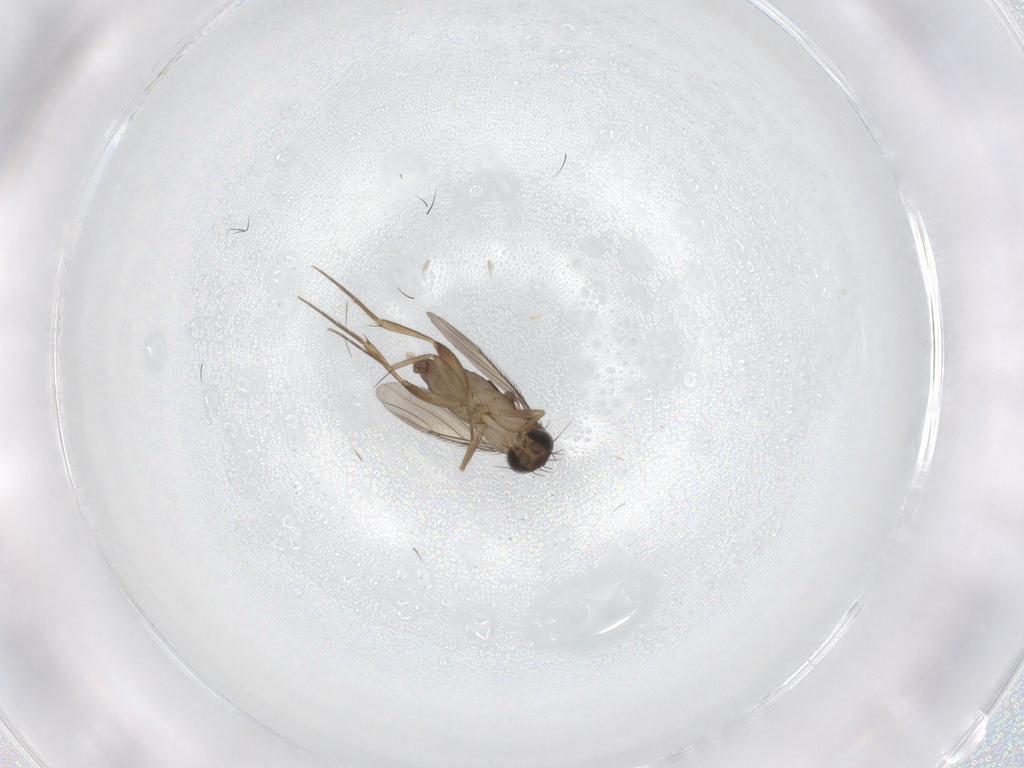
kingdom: Animalia
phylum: Arthropoda
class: Insecta
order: Diptera
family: Phoridae
